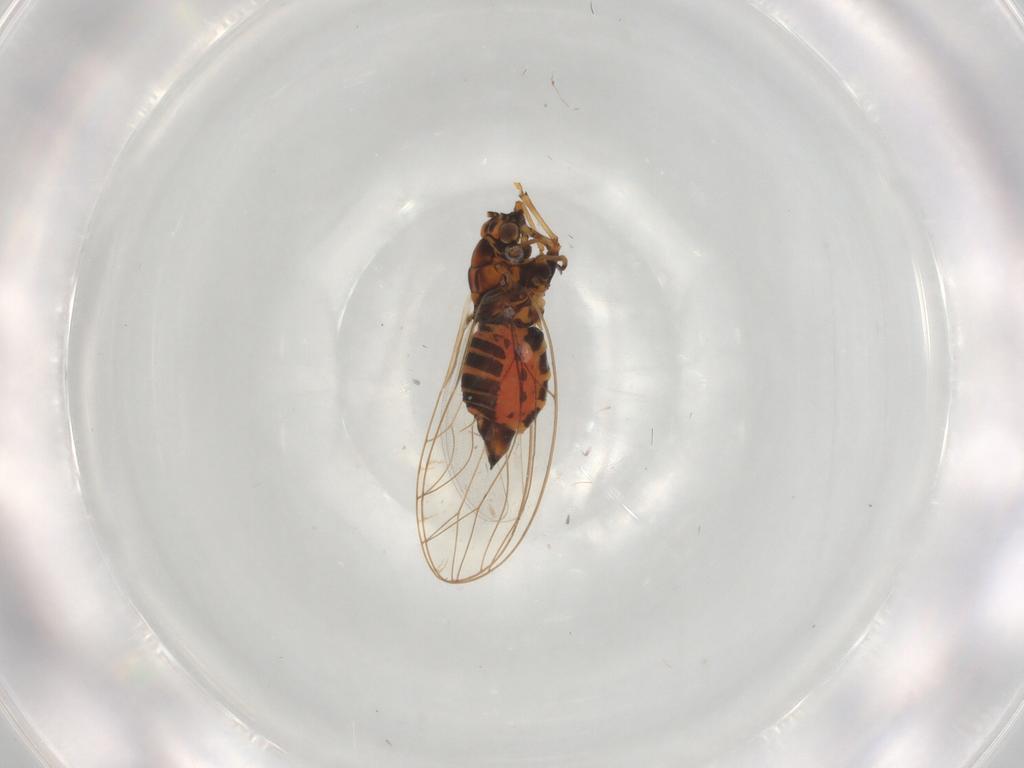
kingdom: Animalia
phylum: Arthropoda
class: Insecta
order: Hemiptera
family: Triozidae
